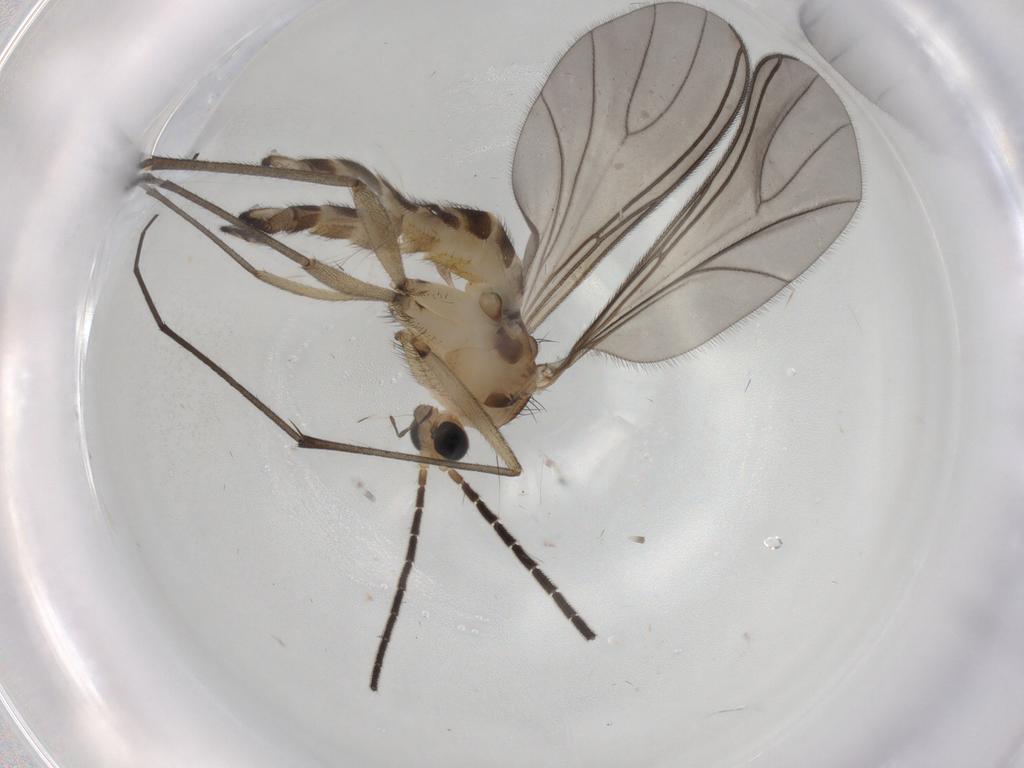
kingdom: Animalia
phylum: Arthropoda
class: Insecta
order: Diptera
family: Sciaridae
